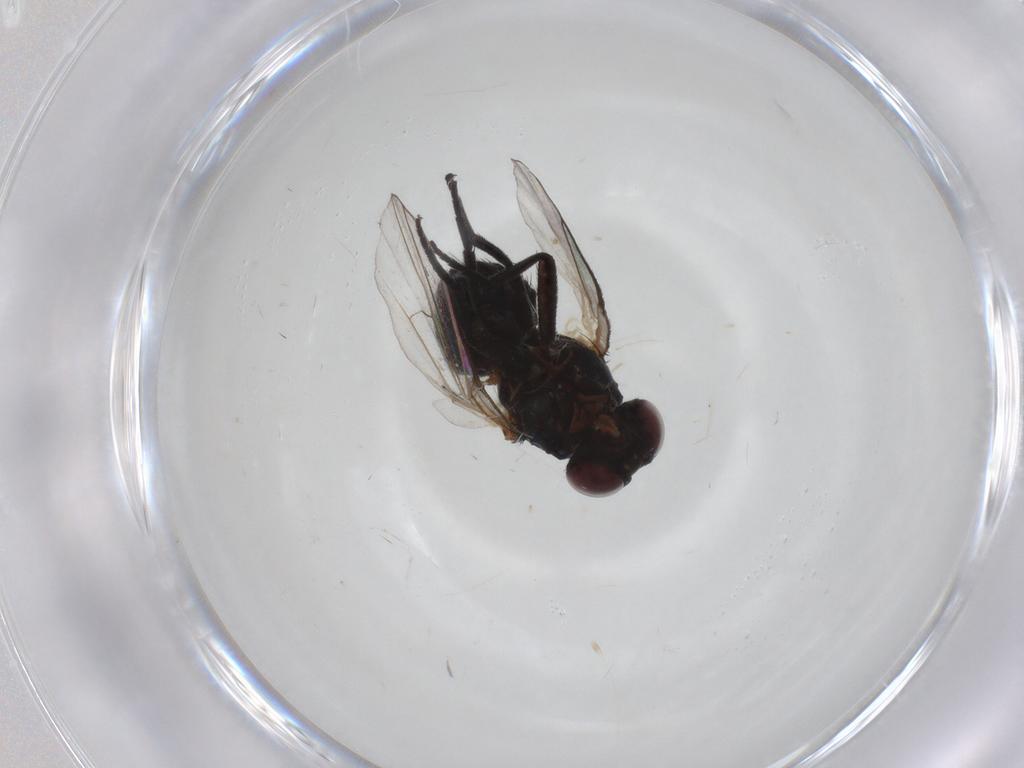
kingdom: Animalia
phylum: Arthropoda
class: Insecta
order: Diptera
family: Agromyzidae
